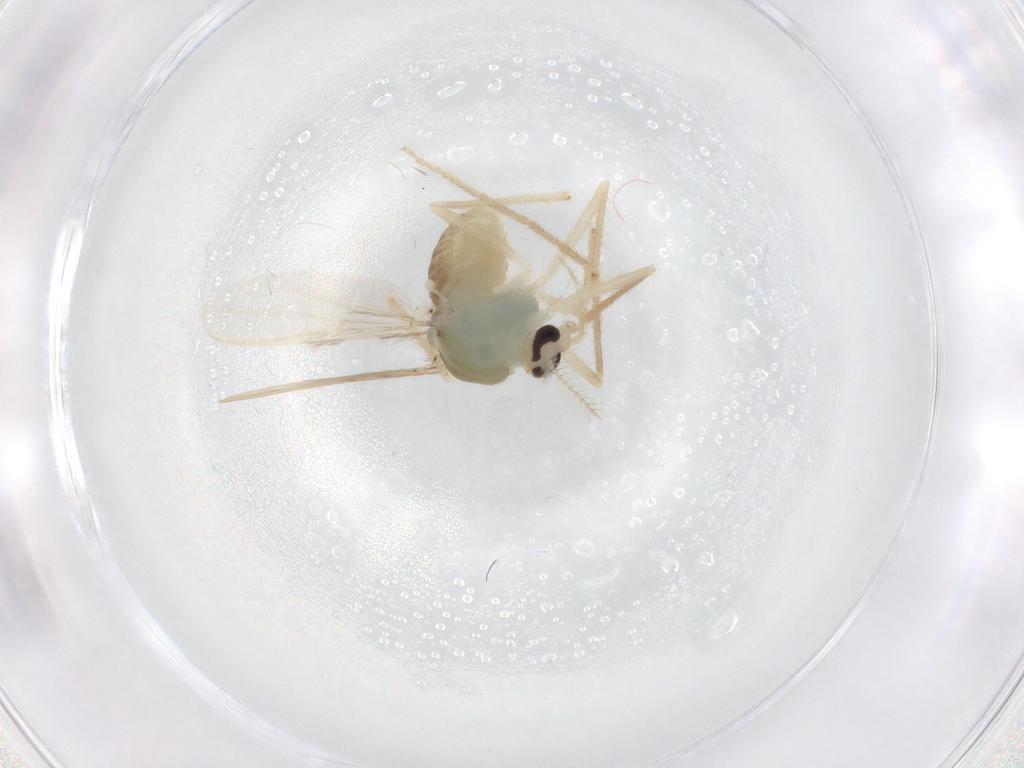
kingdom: Animalia
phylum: Arthropoda
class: Insecta
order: Diptera
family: Chironomidae
